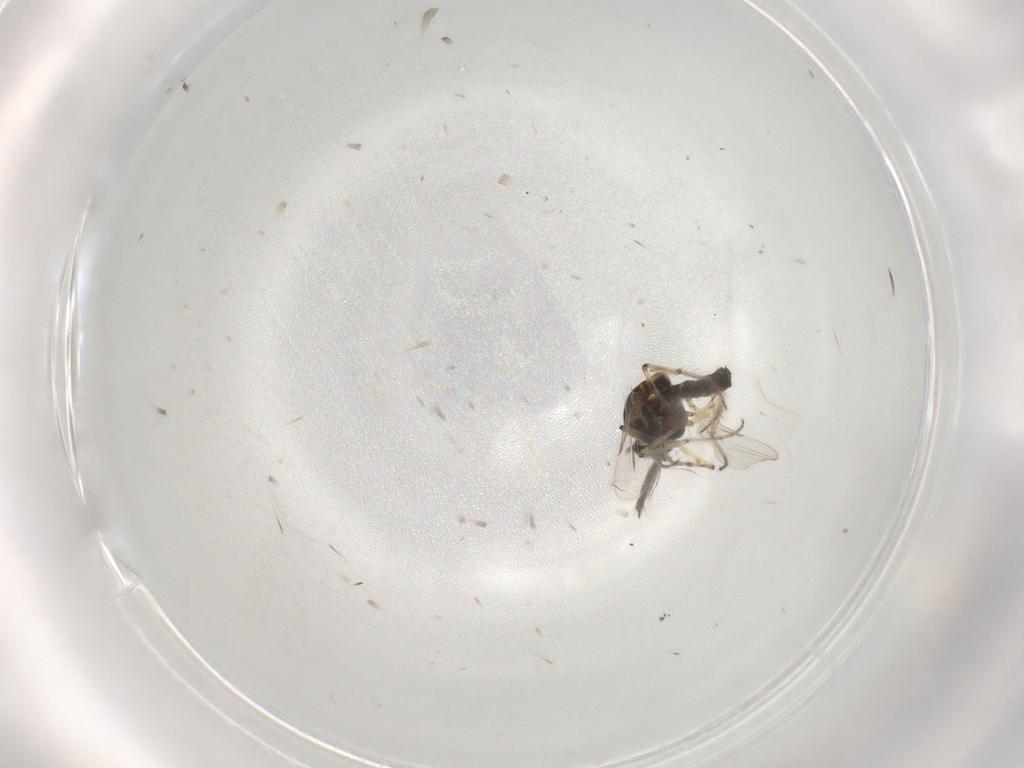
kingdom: Animalia
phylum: Arthropoda
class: Insecta
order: Diptera
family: Ceratopogonidae
